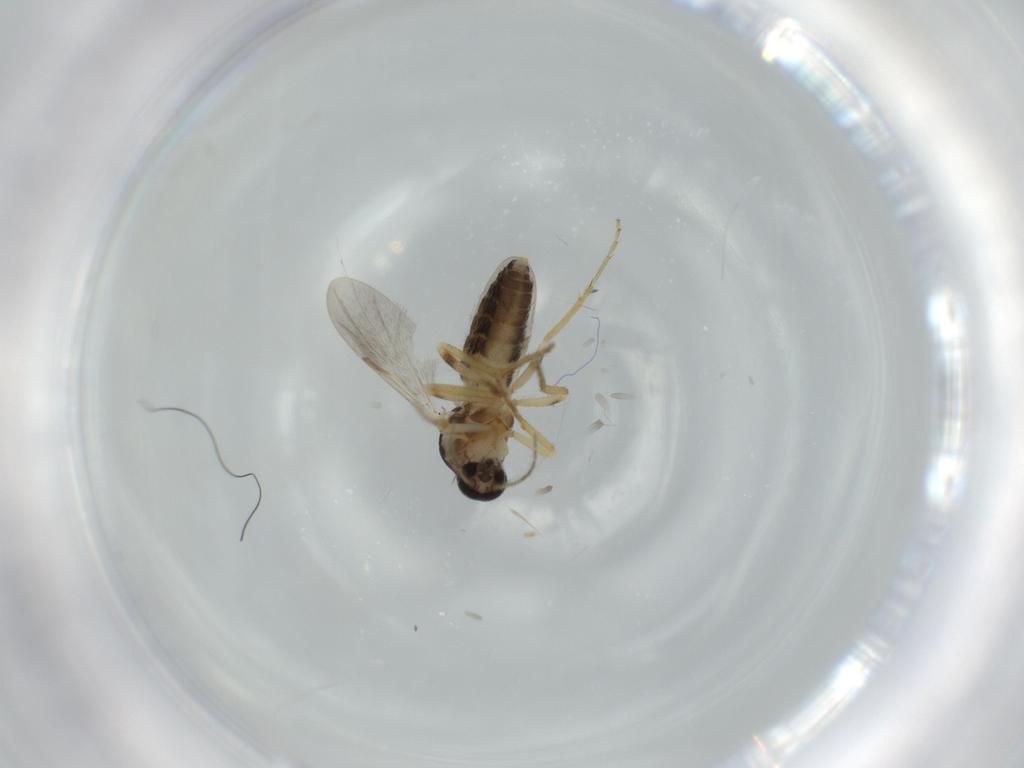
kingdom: Animalia
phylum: Arthropoda
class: Insecta
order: Diptera
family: Ceratopogonidae
